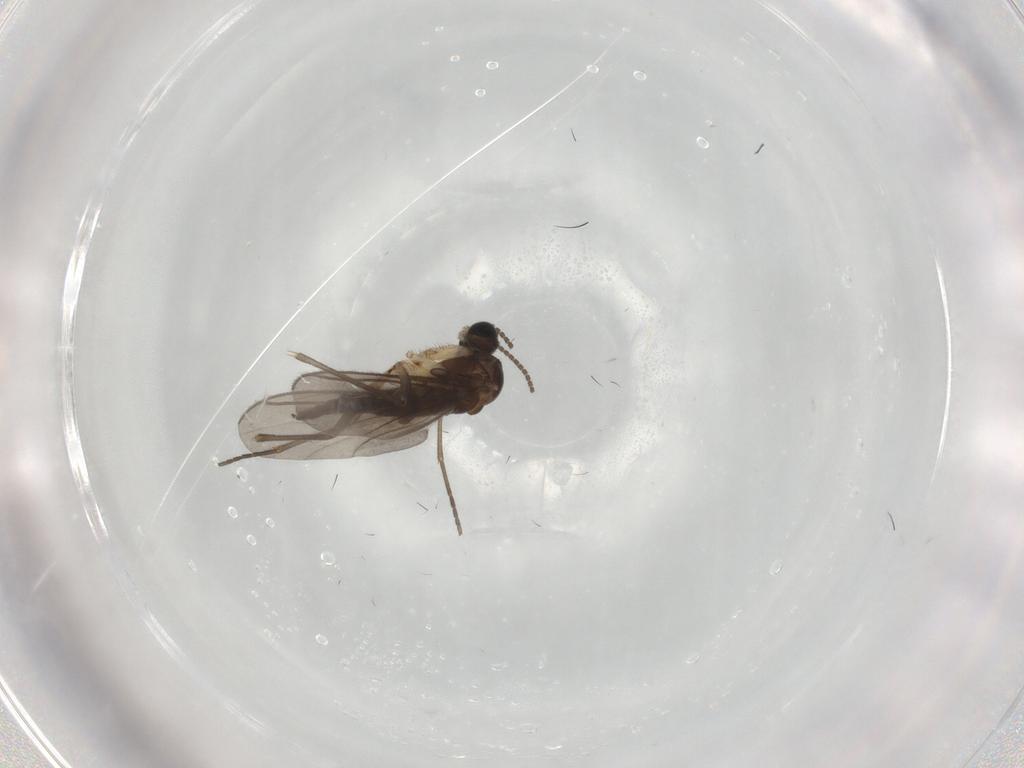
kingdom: Animalia
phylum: Arthropoda
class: Insecta
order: Diptera
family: Sciaridae
